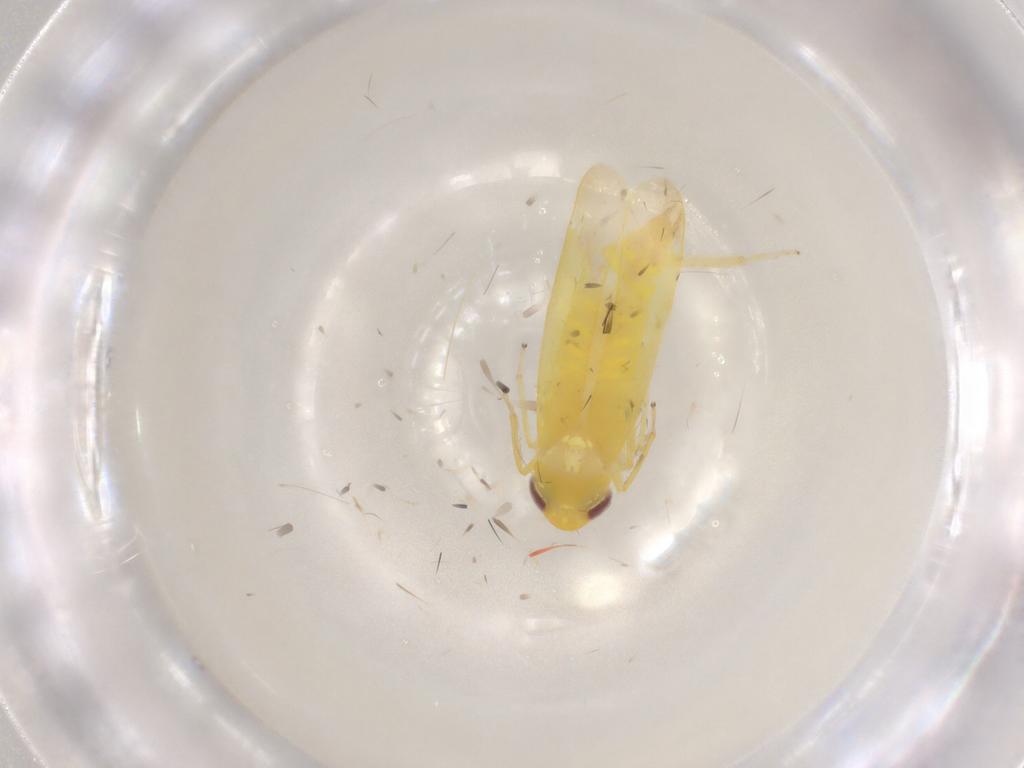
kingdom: Animalia
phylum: Arthropoda
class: Insecta
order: Hemiptera
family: Cicadellidae
